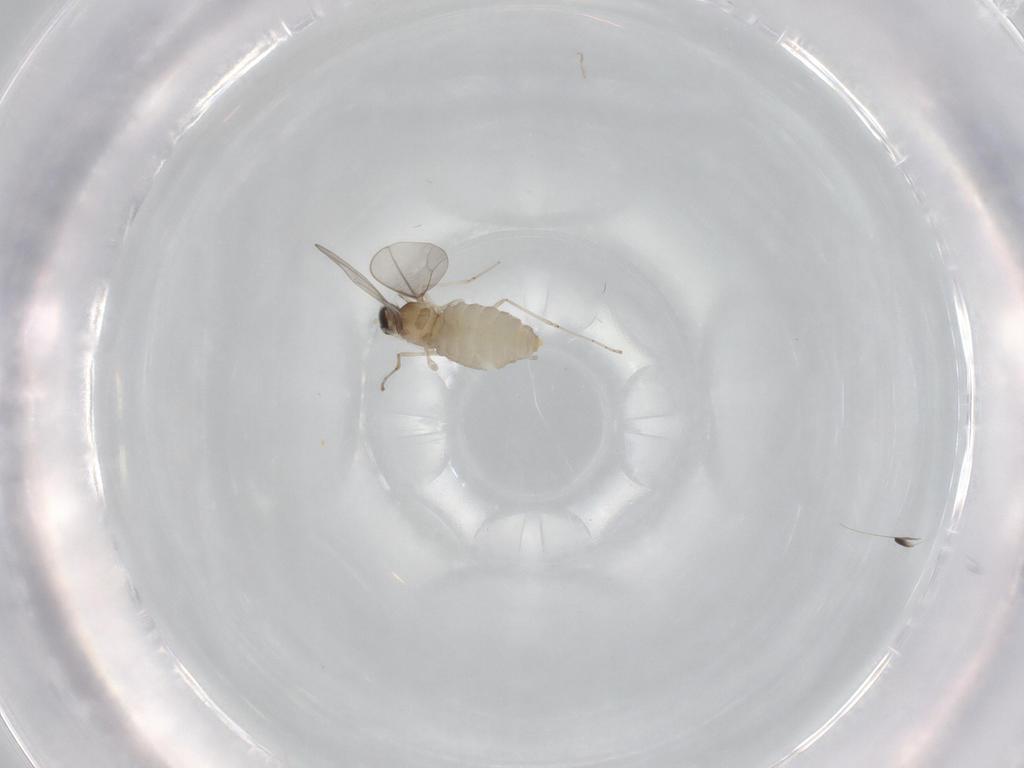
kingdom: Animalia
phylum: Arthropoda
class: Insecta
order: Diptera
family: Cecidomyiidae
